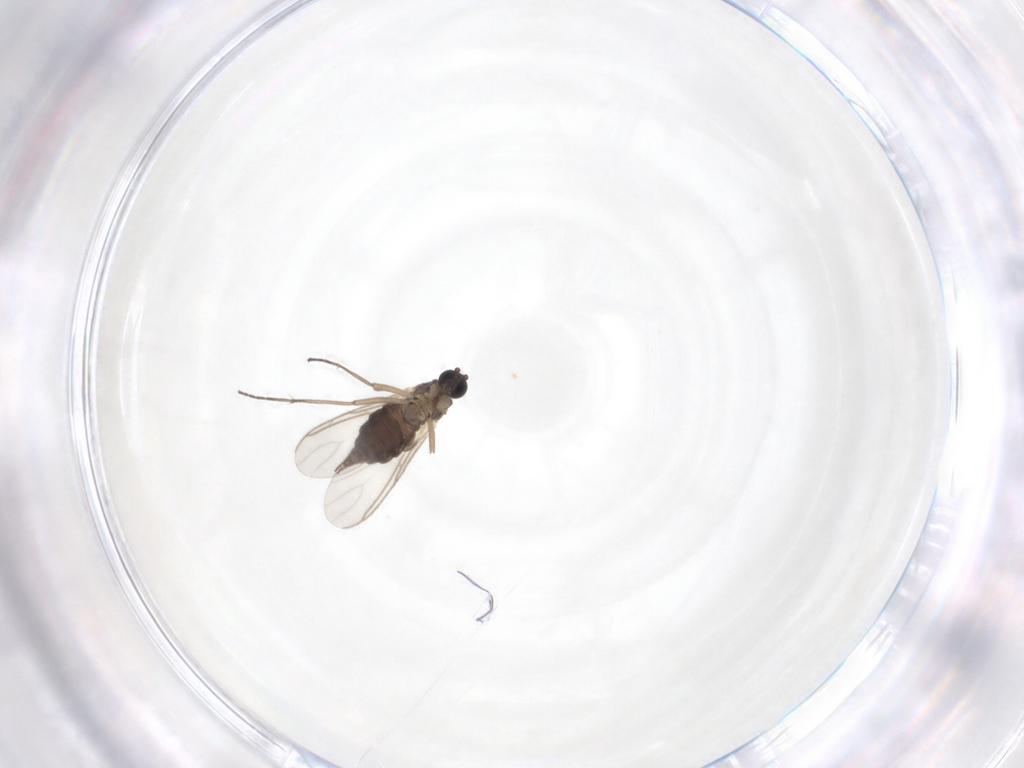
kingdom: Animalia
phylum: Arthropoda
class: Insecta
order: Diptera
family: Sciaridae
